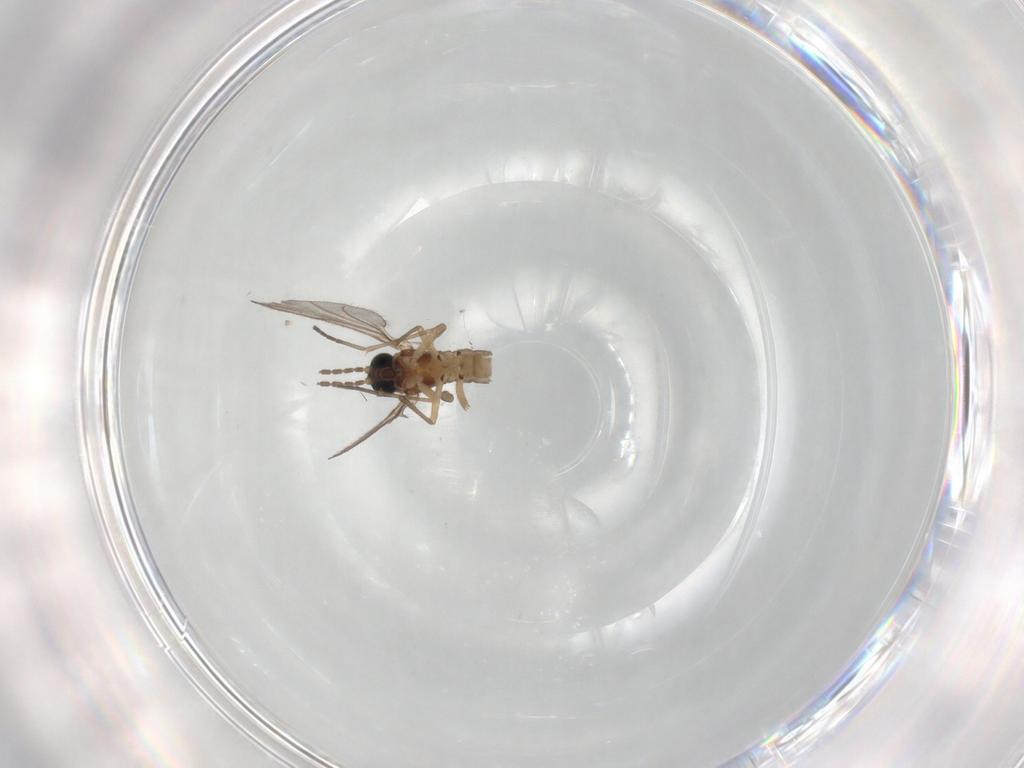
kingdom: Animalia
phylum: Arthropoda
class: Insecta
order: Diptera
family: Sciaridae
